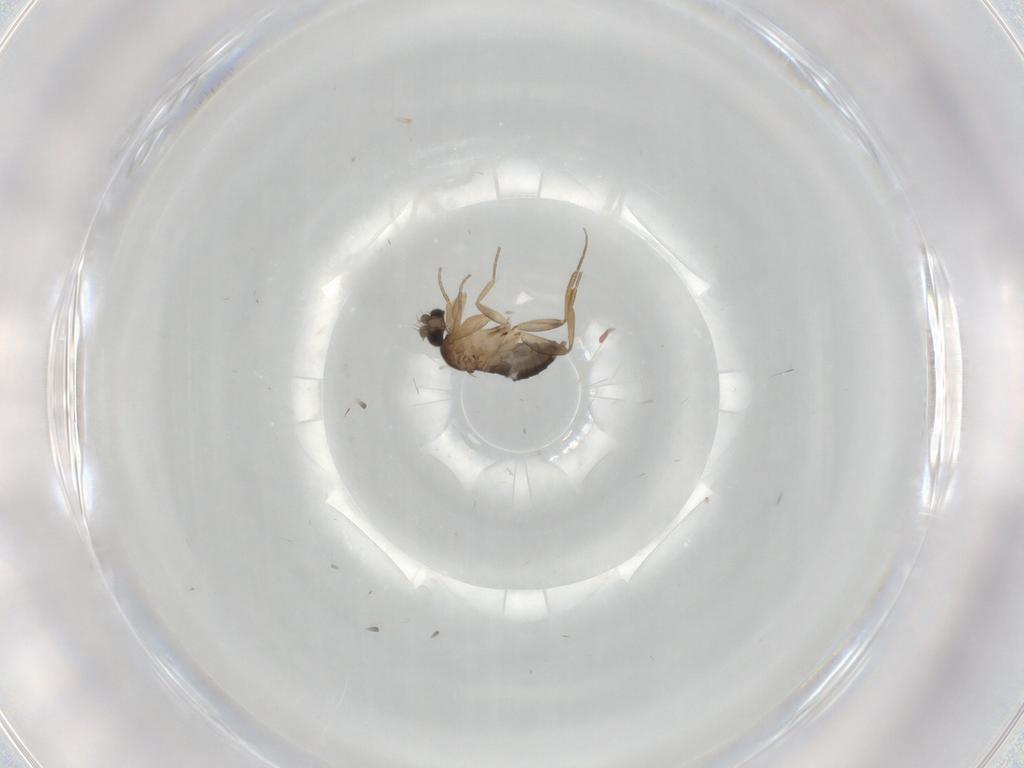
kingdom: Animalia
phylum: Arthropoda
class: Insecta
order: Diptera
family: Phoridae
